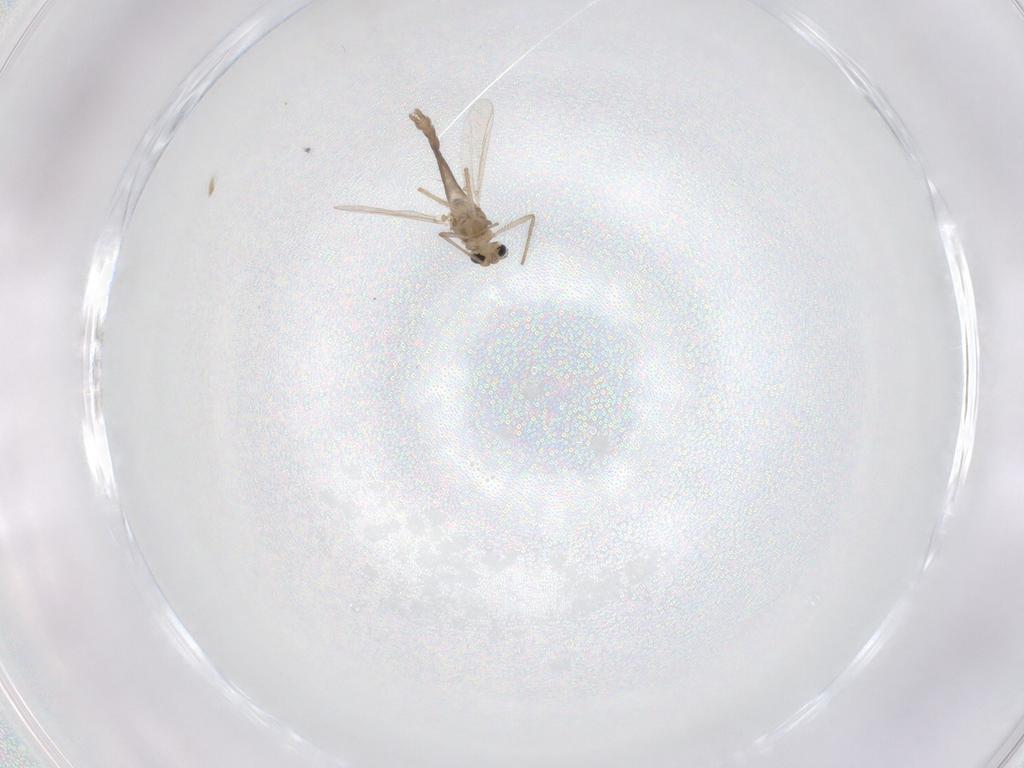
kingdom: Animalia
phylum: Arthropoda
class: Insecta
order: Diptera
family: Chironomidae
